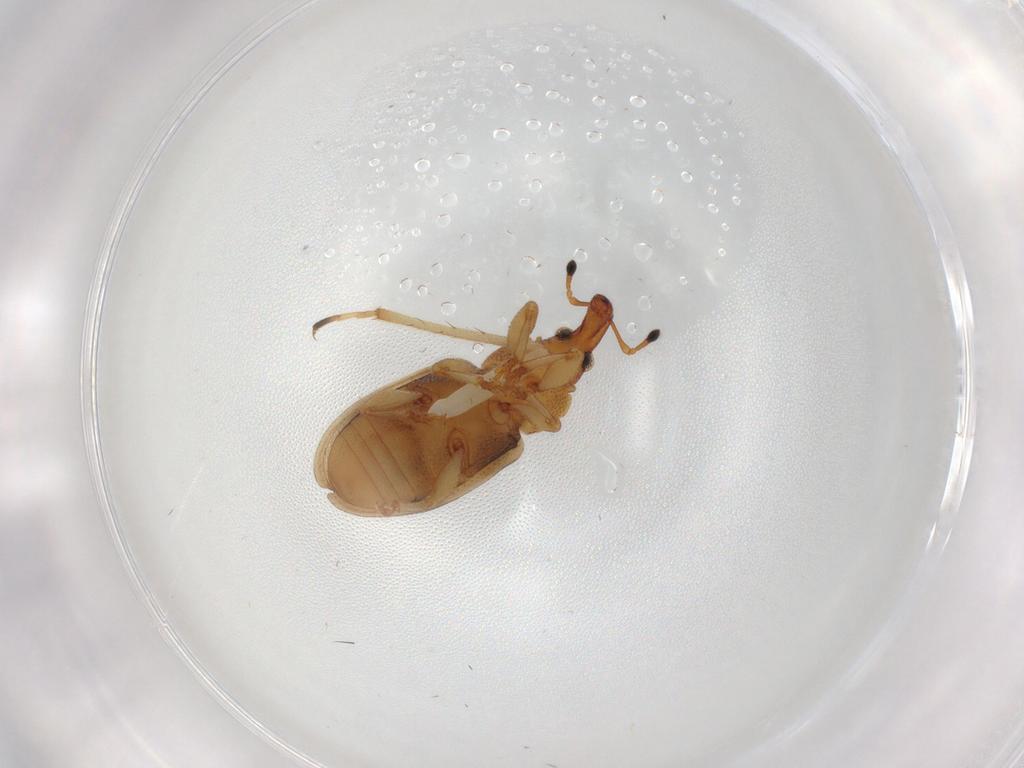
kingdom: Animalia
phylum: Arthropoda
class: Insecta
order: Coleoptera
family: Curculionidae
